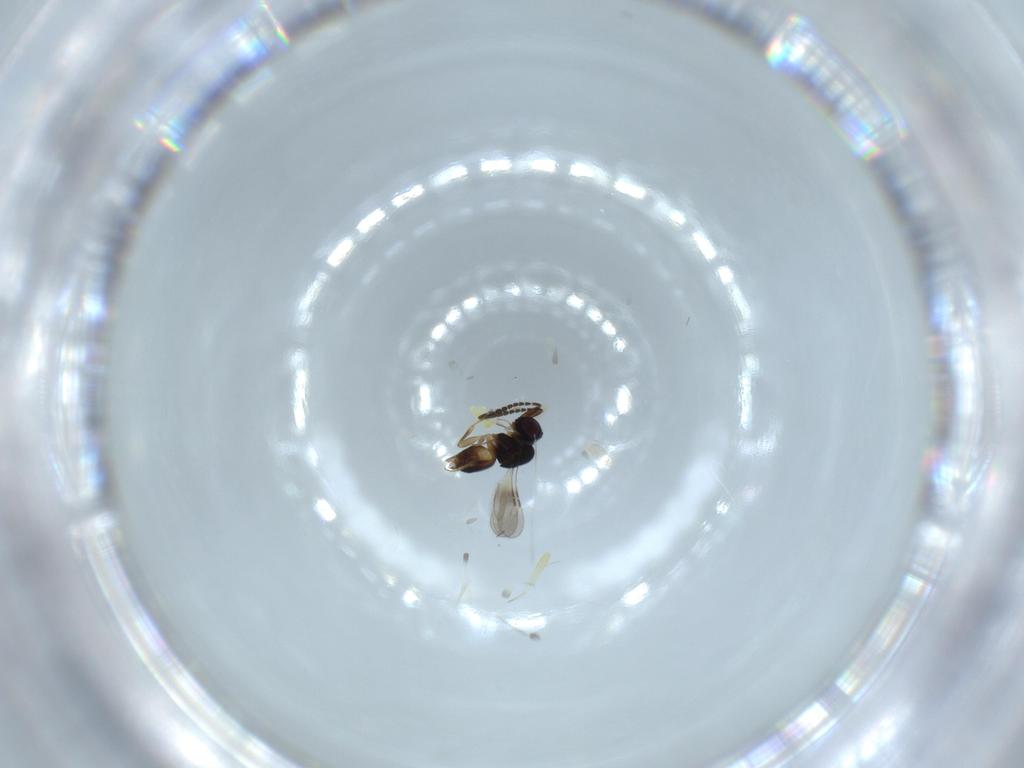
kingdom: Animalia
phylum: Arthropoda
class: Insecta
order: Hymenoptera
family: Braconidae
